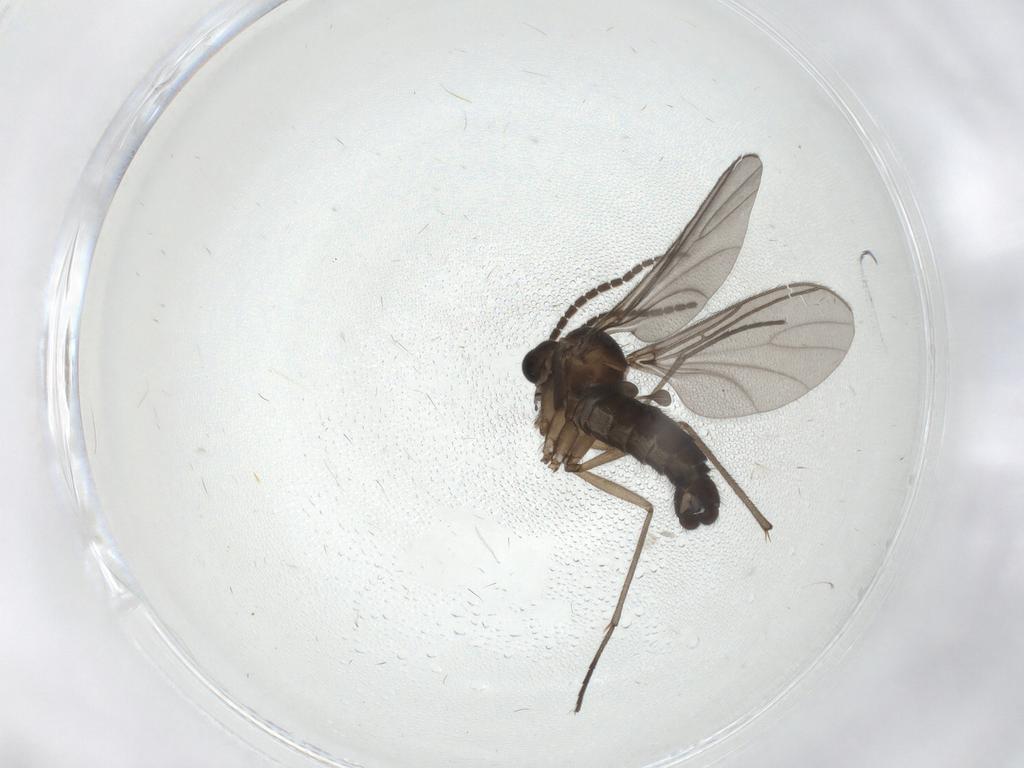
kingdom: Animalia
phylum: Arthropoda
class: Insecta
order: Diptera
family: Sciaridae
